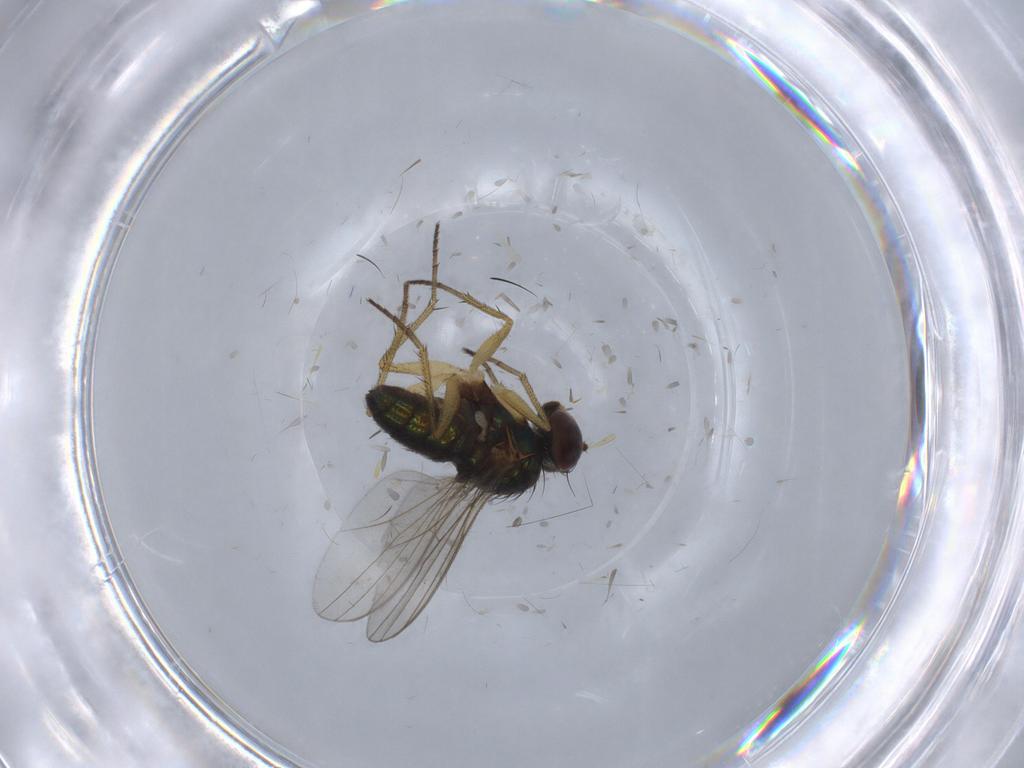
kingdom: Animalia
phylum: Arthropoda
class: Insecta
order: Diptera
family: Dolichopodidae
